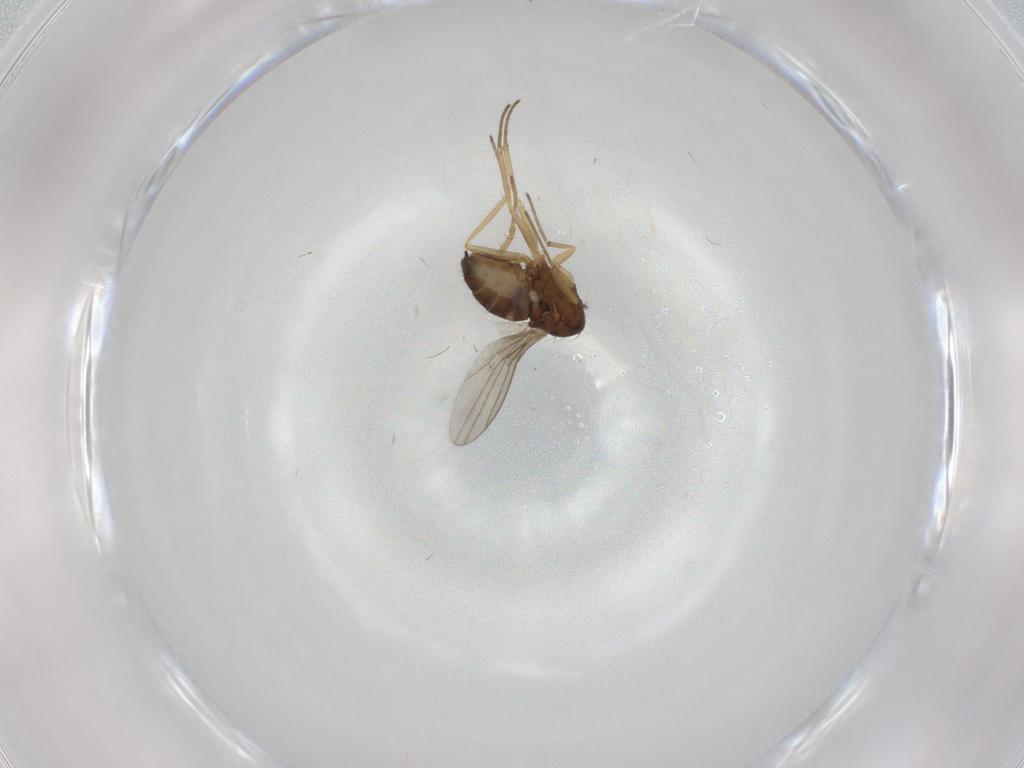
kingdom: Animalia
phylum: Arthropoda
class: Insecta
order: Diptera
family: Dolichopodidae
